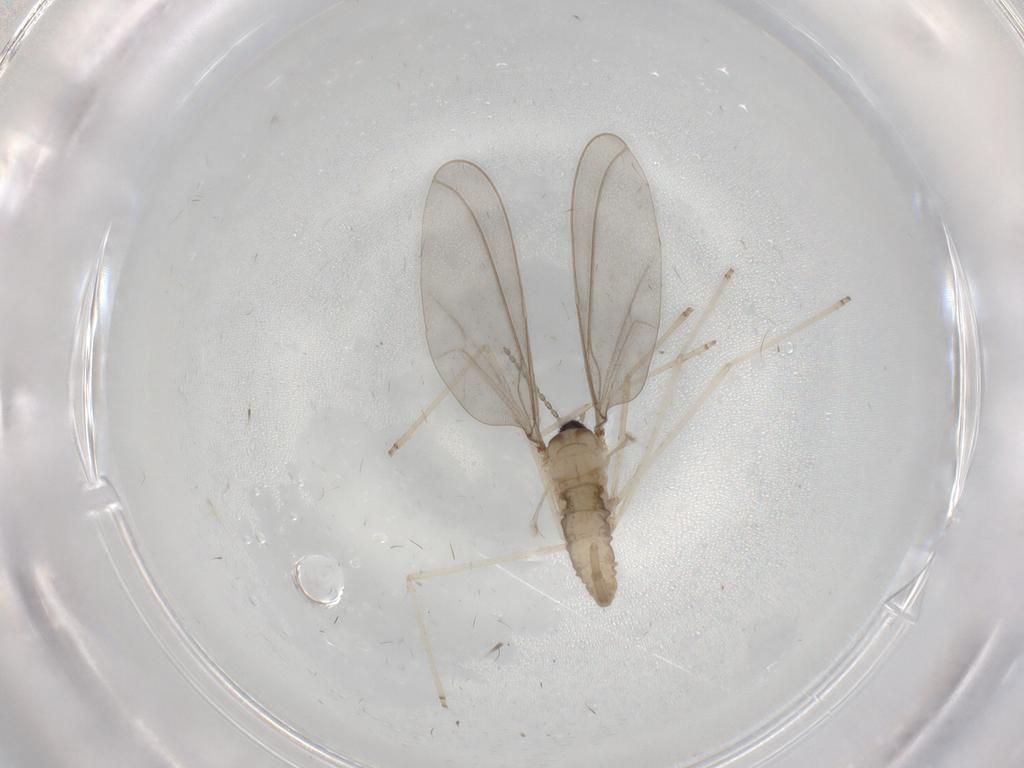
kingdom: Animalia
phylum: Arthropoda
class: Insecta
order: Diptera
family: Cecidomyiidae
